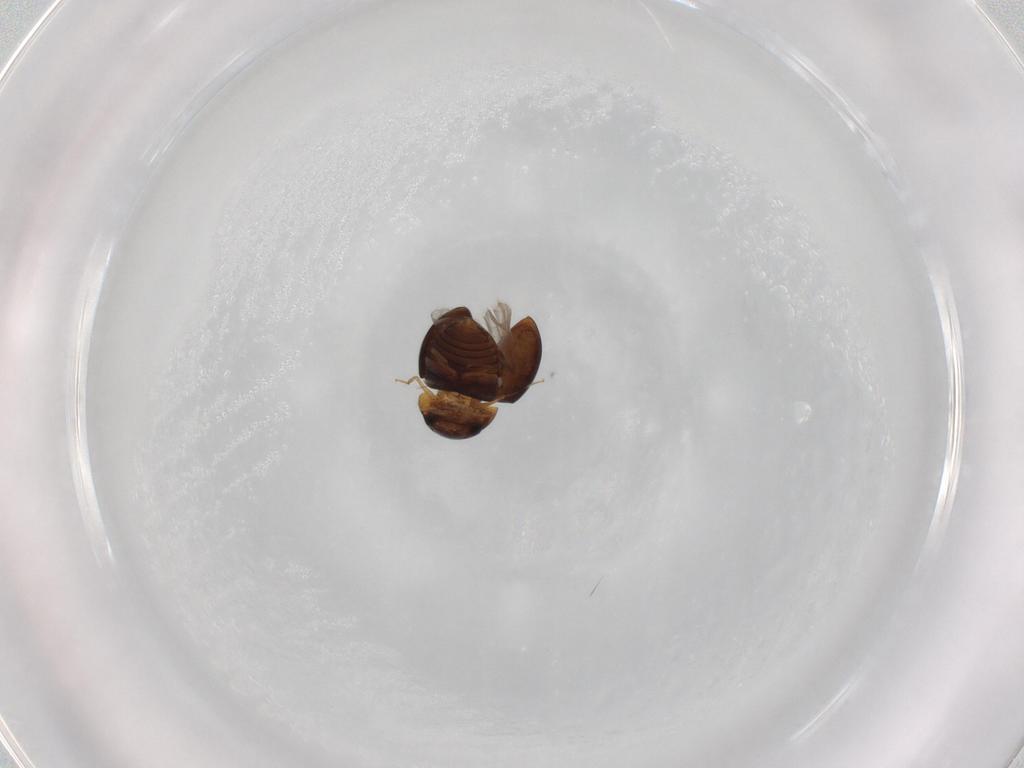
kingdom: Animalia
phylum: Arthropoda
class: Insecta
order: Coleoptera
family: Clambidae
